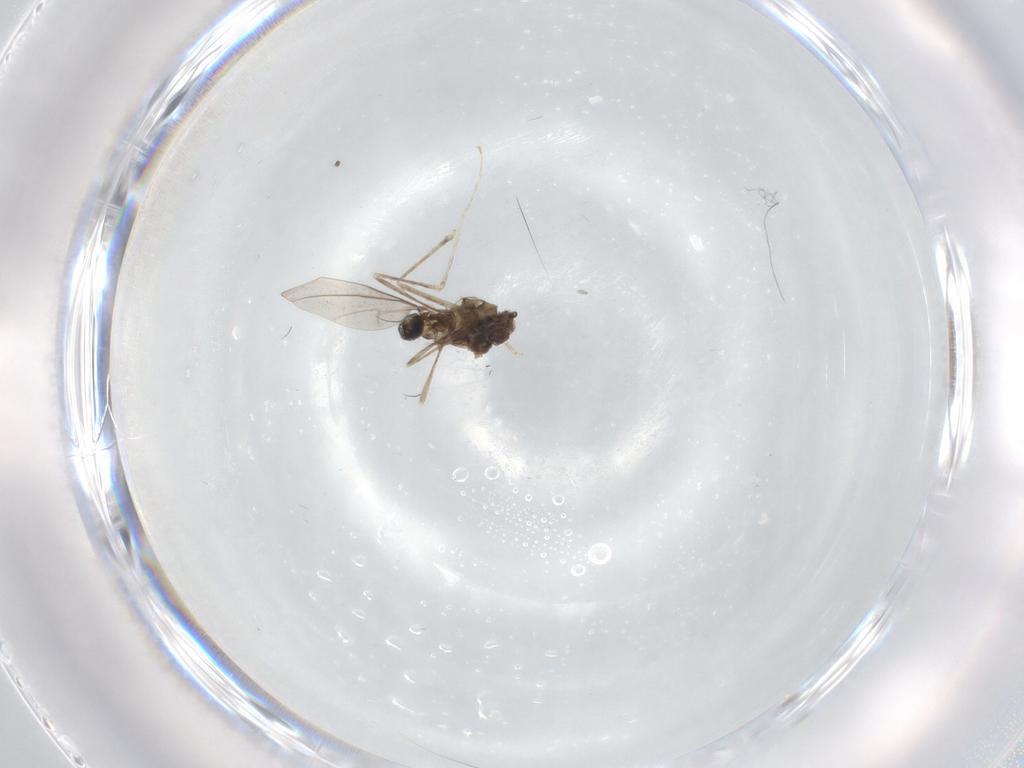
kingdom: Animalia
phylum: Arthropoda
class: Insecta
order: Diptera
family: Cecidomyiidae
